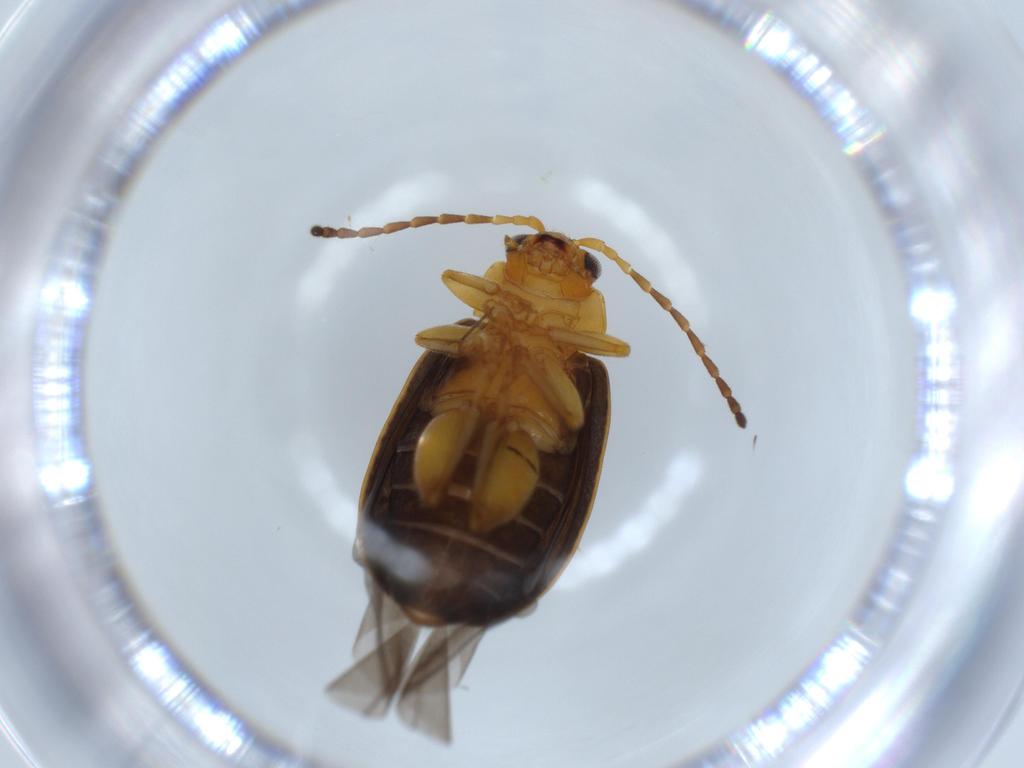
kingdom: Animalia
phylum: Arthropoda
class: Insecta
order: Coleoptera
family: Chrysomelidae
